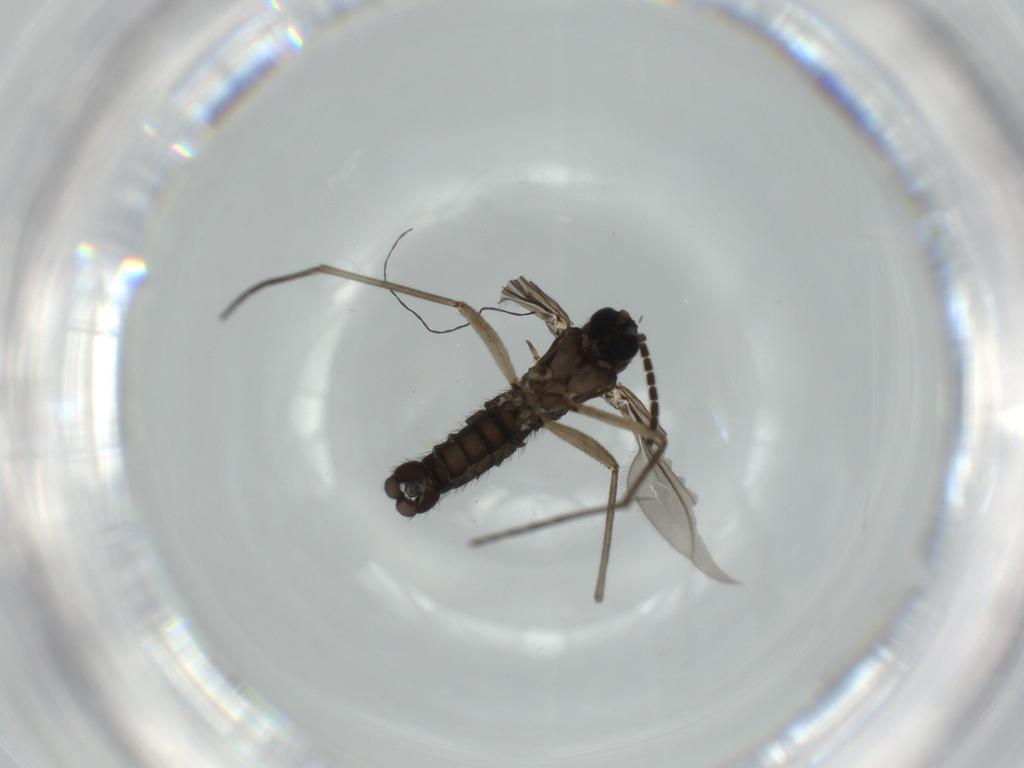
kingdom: Animalia
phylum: Arthropoda
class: Insecta
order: Diptera
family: Sciaridae
